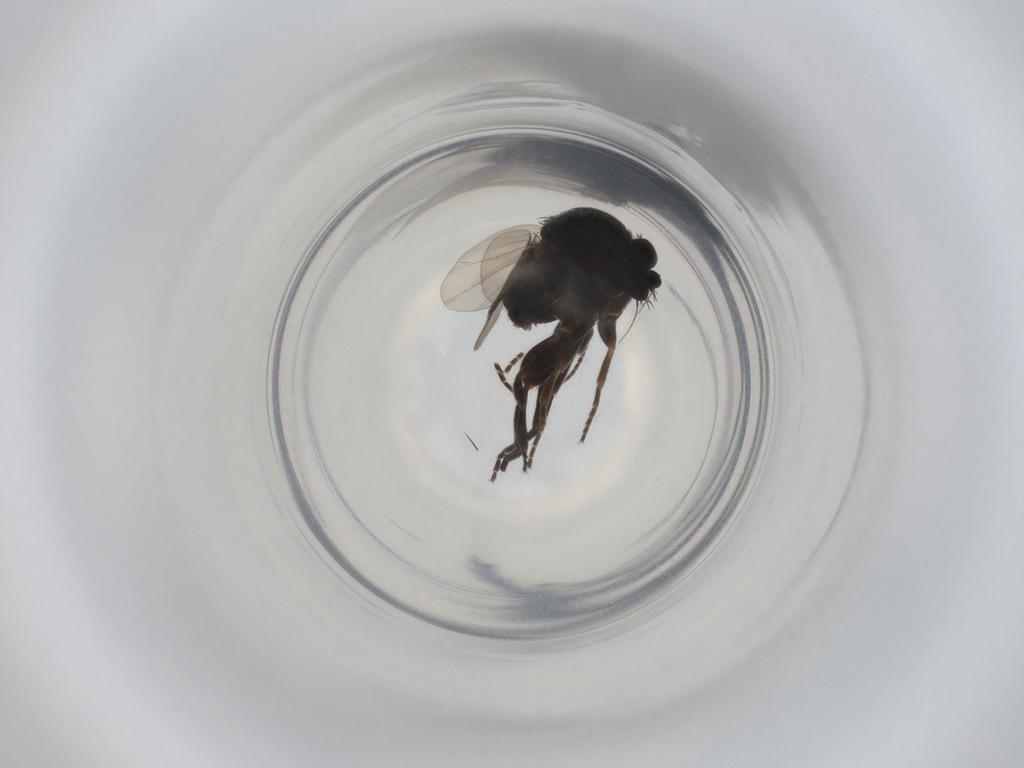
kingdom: Animalia
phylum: Arthropoda
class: Insecta
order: Diptera
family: Phoridae
